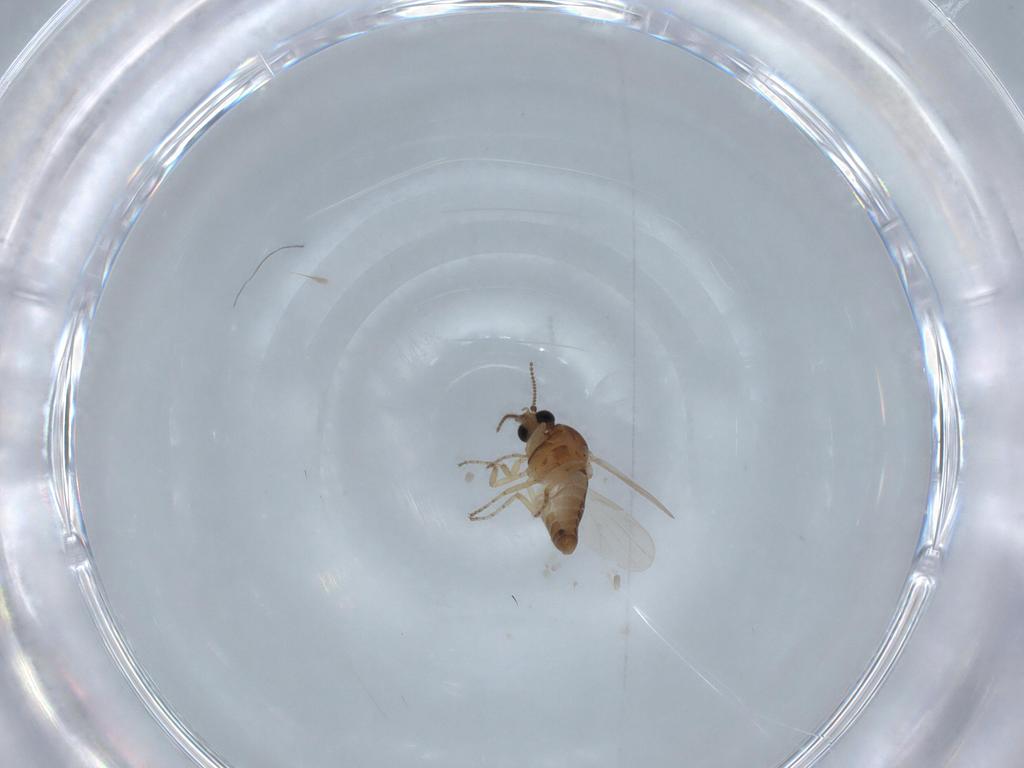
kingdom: Animalia
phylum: Arthropoda
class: Insecta
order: Diptera
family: Ceratopogonidae
